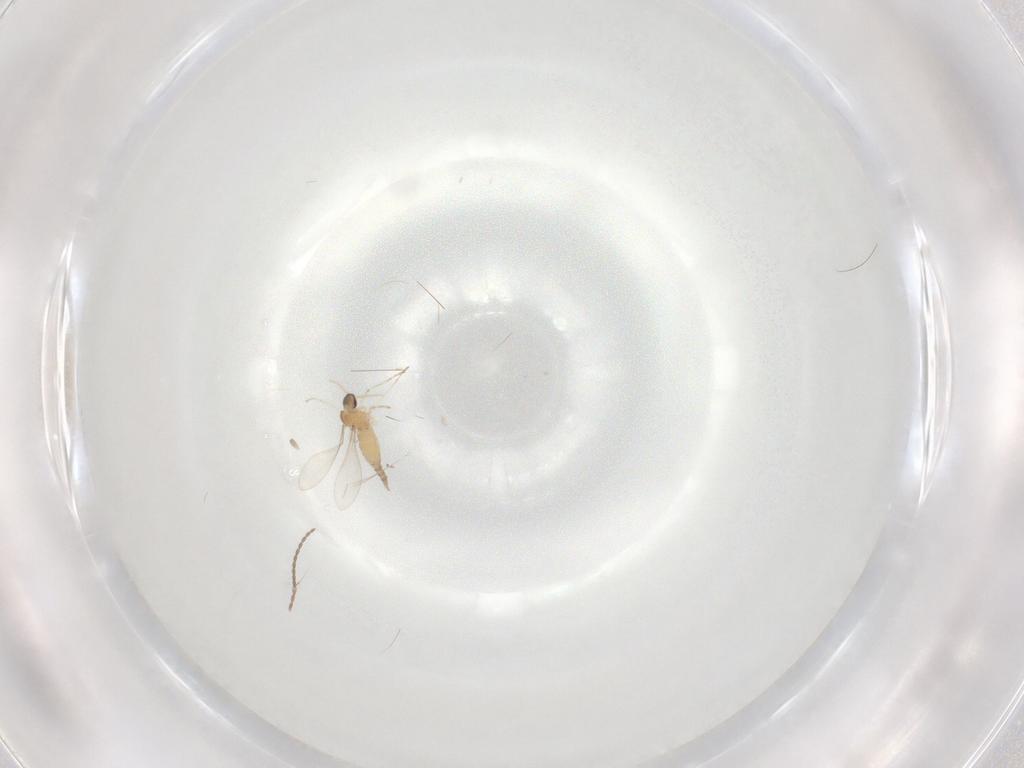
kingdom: Animalia
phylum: Arthropoda
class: Insecta
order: Diptera
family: Cecidomyiidae
